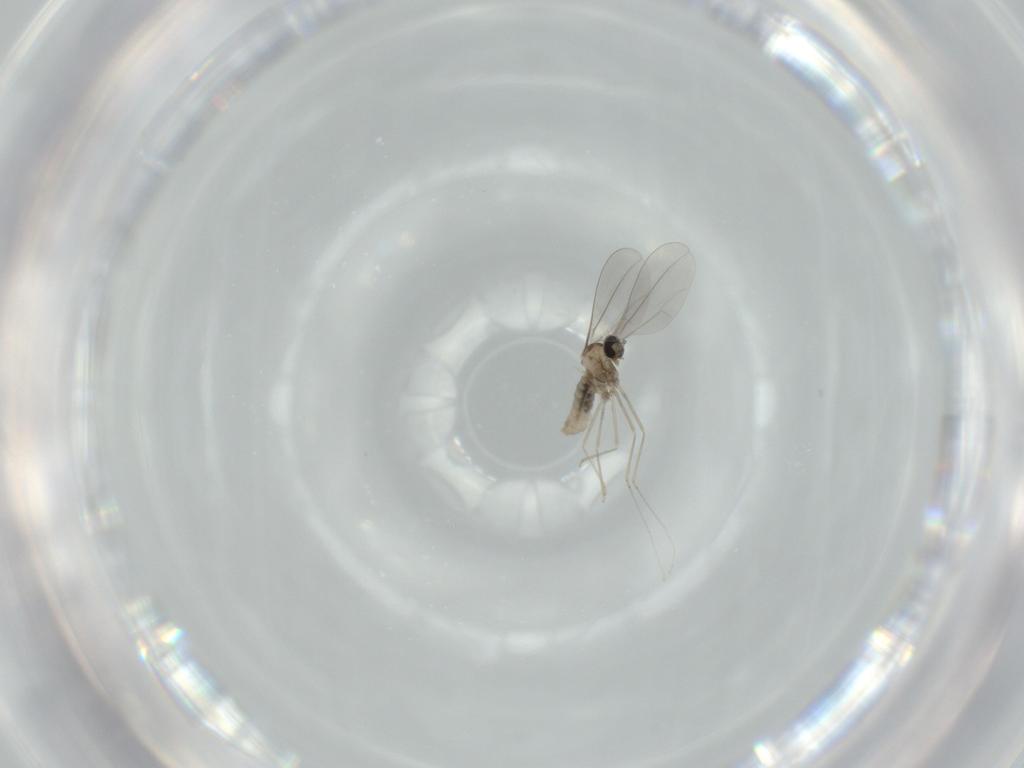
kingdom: Animalia
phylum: Arthropoda
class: Insecta
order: Diptera
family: Cecidomyiidae
